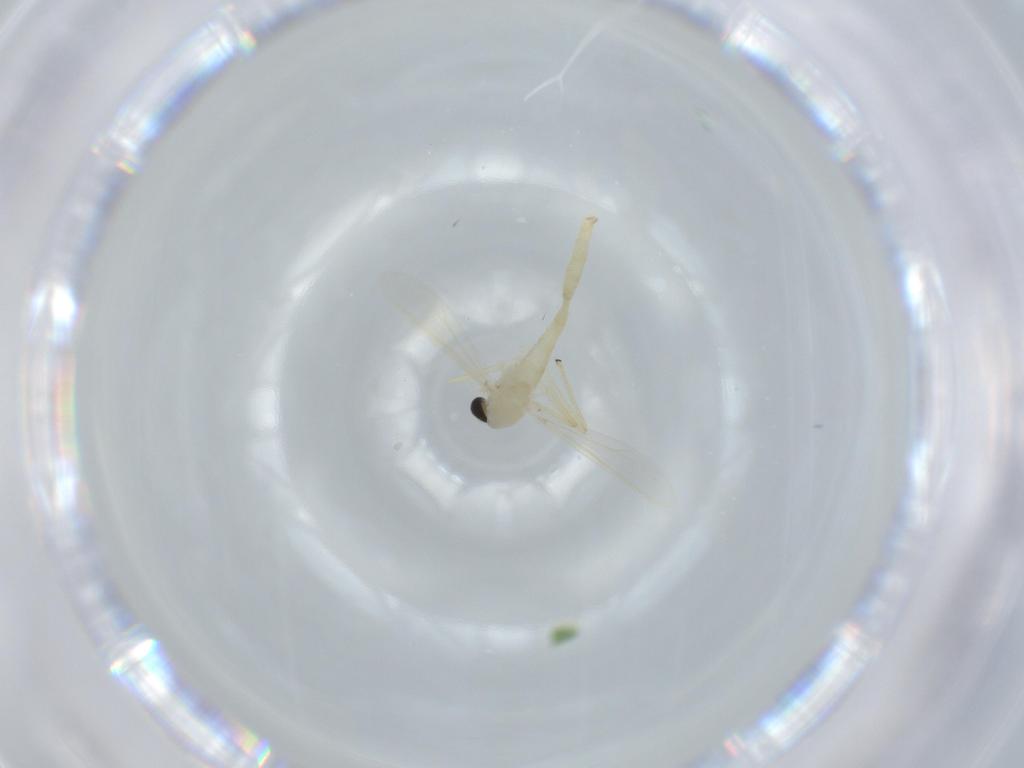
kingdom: Animalia
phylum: Arthropoda
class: Insecta
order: Diptera
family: Chironomidae
